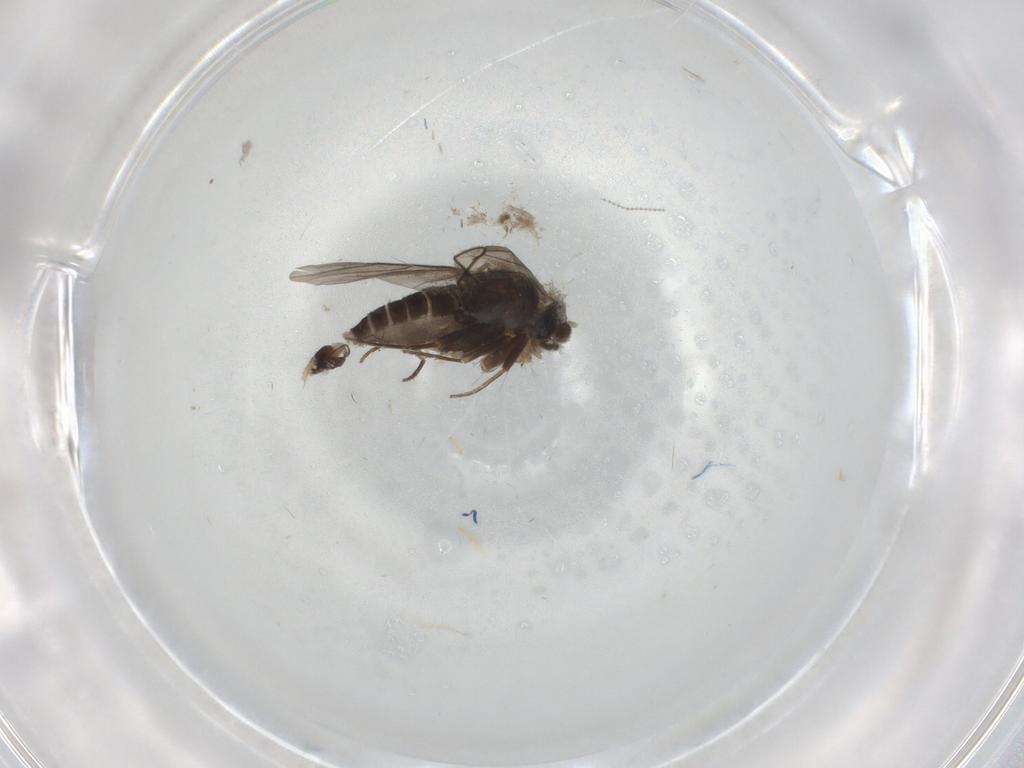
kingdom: Animalia
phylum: Arthropoda
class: Insecta
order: Diptera
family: Phoridae
